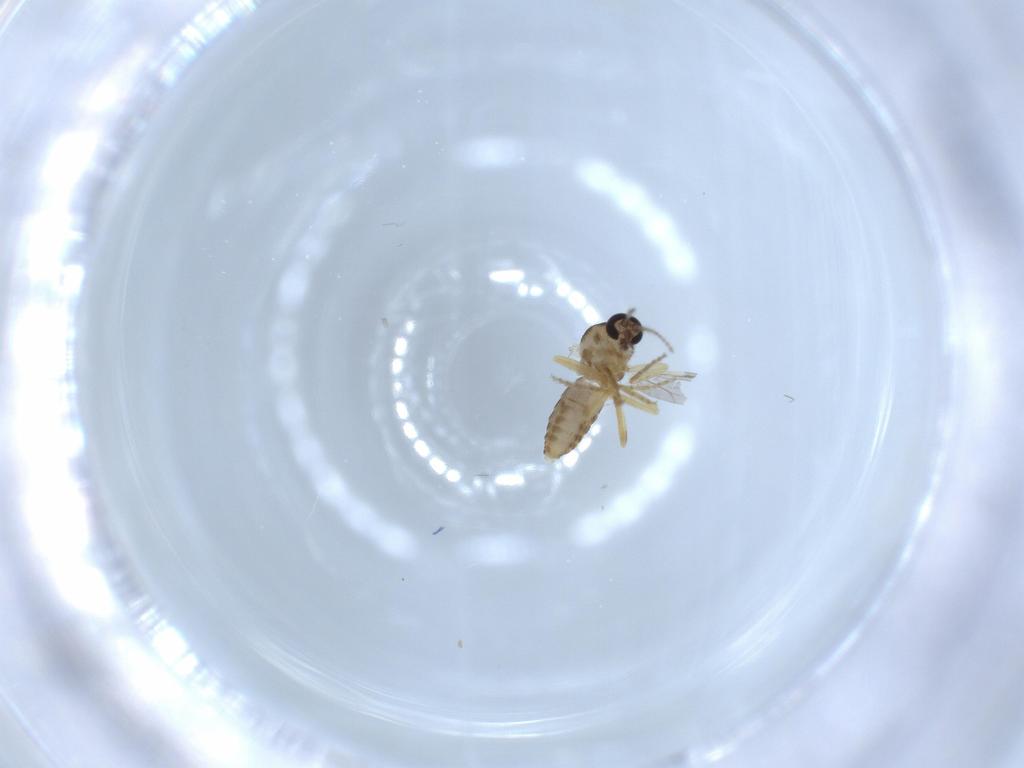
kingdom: Animalia
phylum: Arthropoda
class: Insecta
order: Diptera
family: Ceratopogonidae
